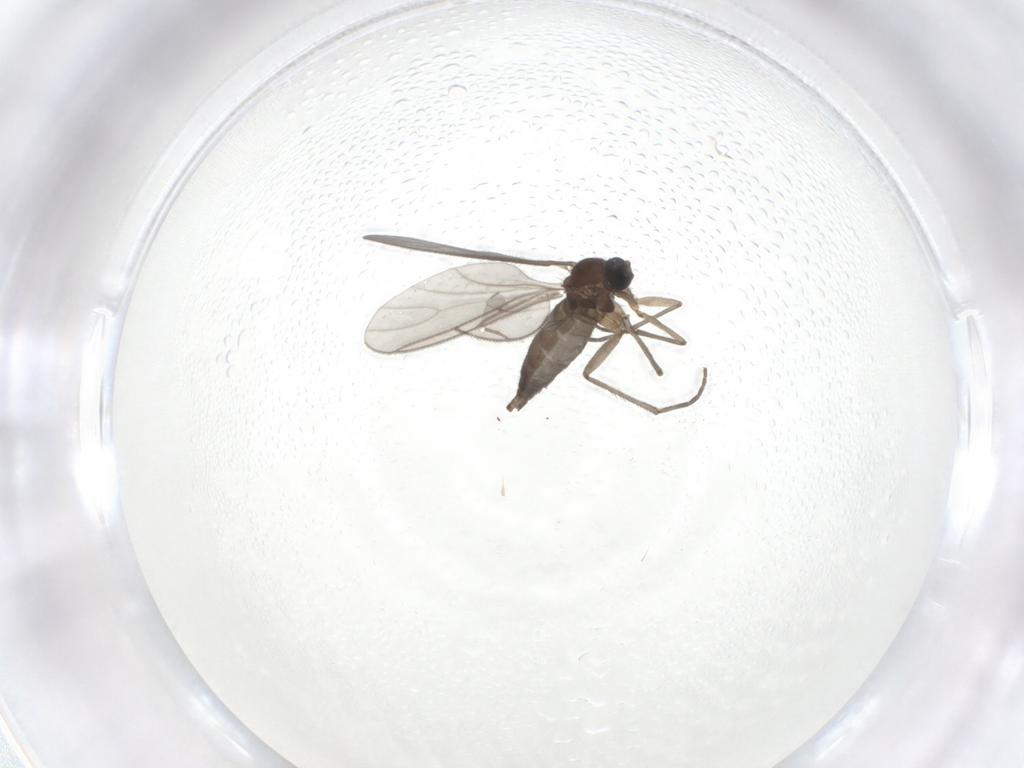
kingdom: Animalia
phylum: Arthropoda
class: Insecta
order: Diptera
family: Sciaridae
